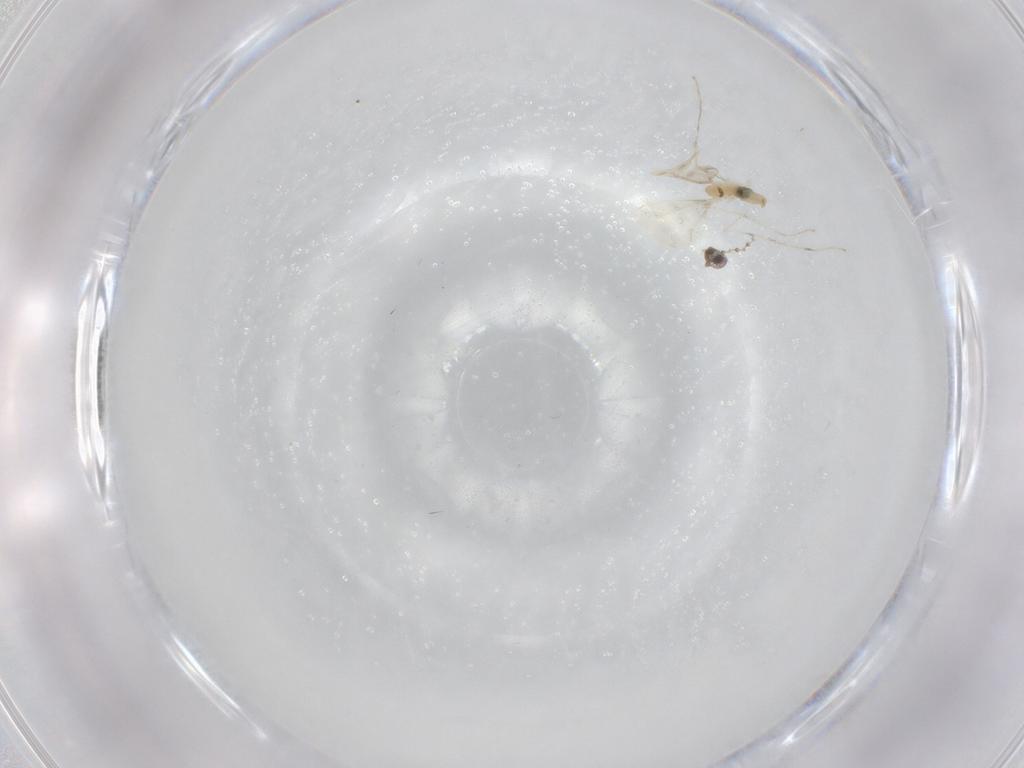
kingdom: Animalia
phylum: Arthropoda
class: Insecta
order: Diptera
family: Cecidomyiidae
